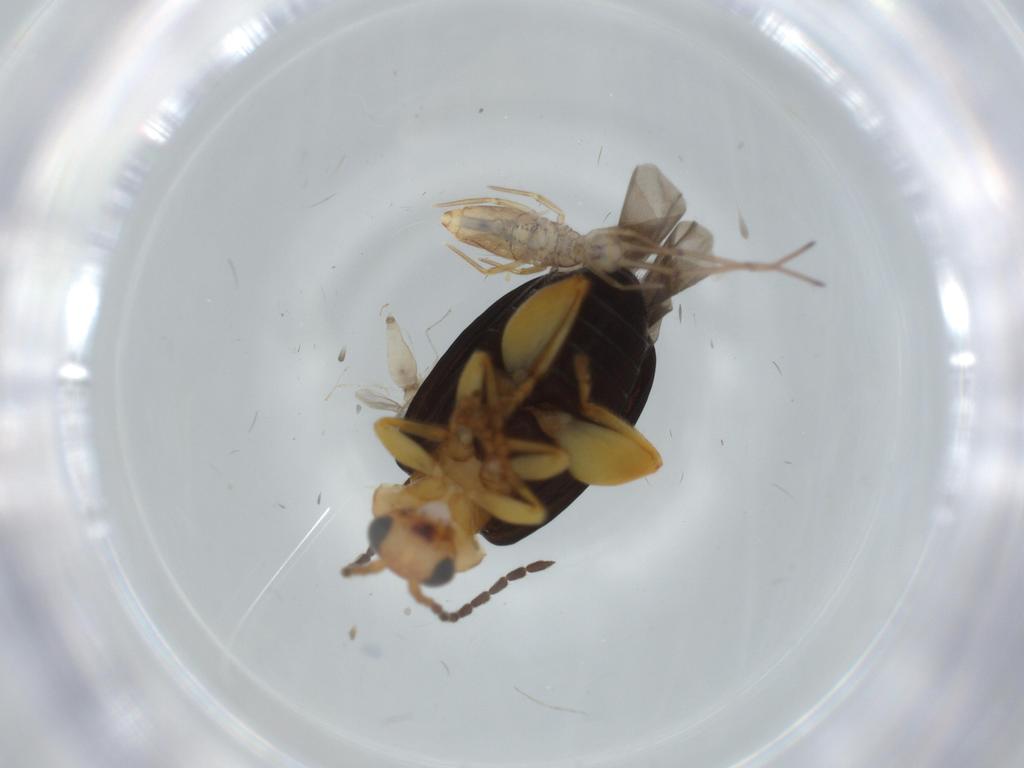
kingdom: Animalia
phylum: Arthropoda
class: Insecta
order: Coleoptera
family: Chrysomelidae
